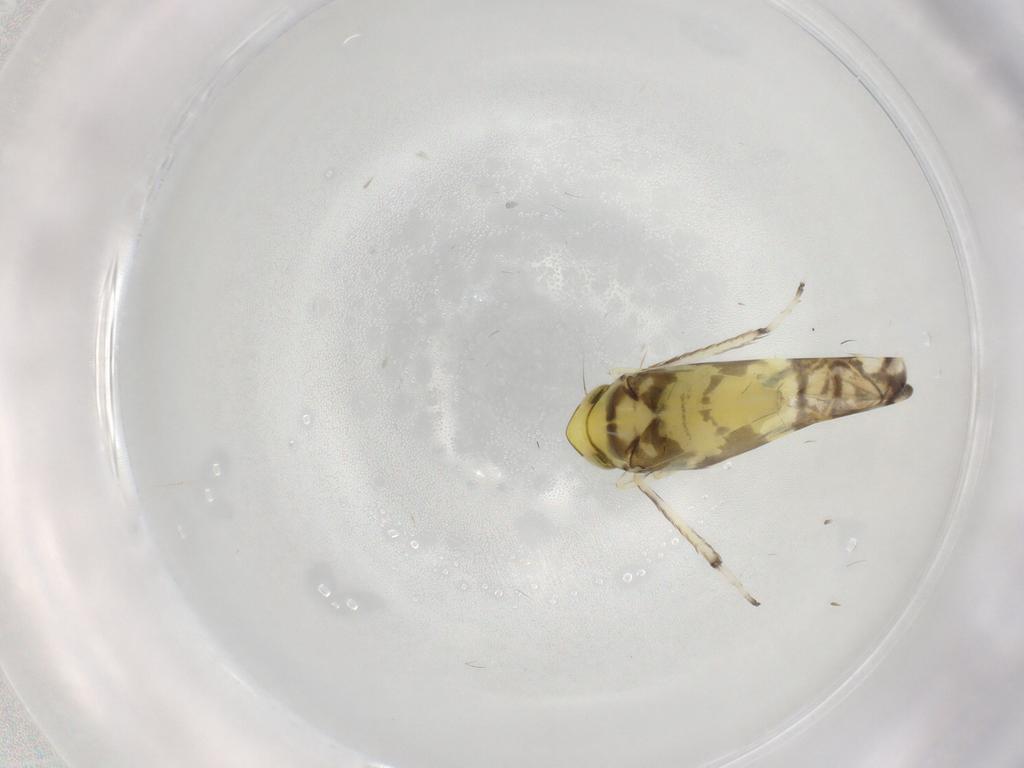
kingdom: Animalia
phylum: Arthropoda
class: Insecta
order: Hemiptera
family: Cicadellidae
